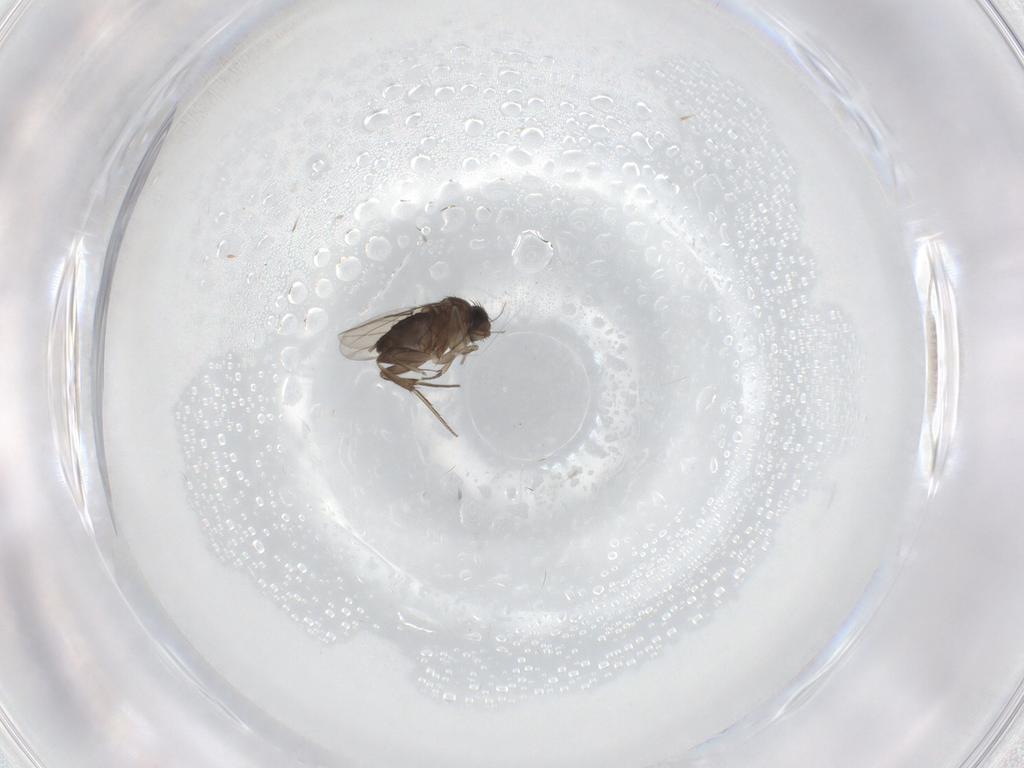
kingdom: Animalia
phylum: Arthropoda
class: Insecta
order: Diptera
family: Phoridae
